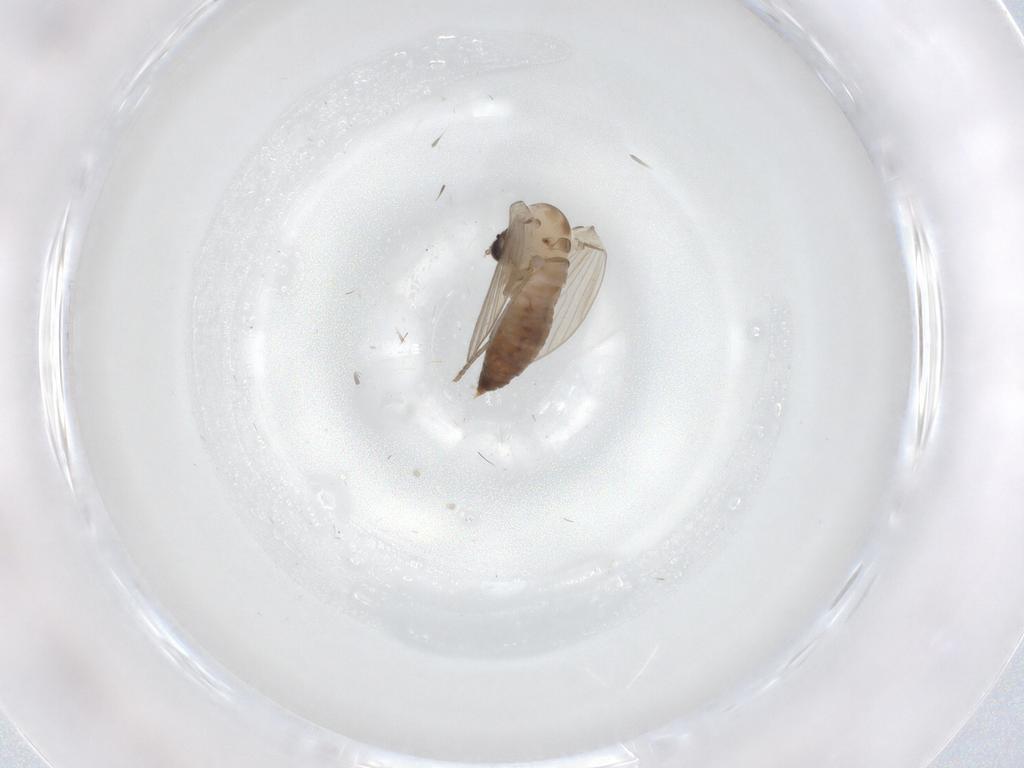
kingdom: Animalia
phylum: Arthropoda
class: Insecta
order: Diptera
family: Psychodidae
